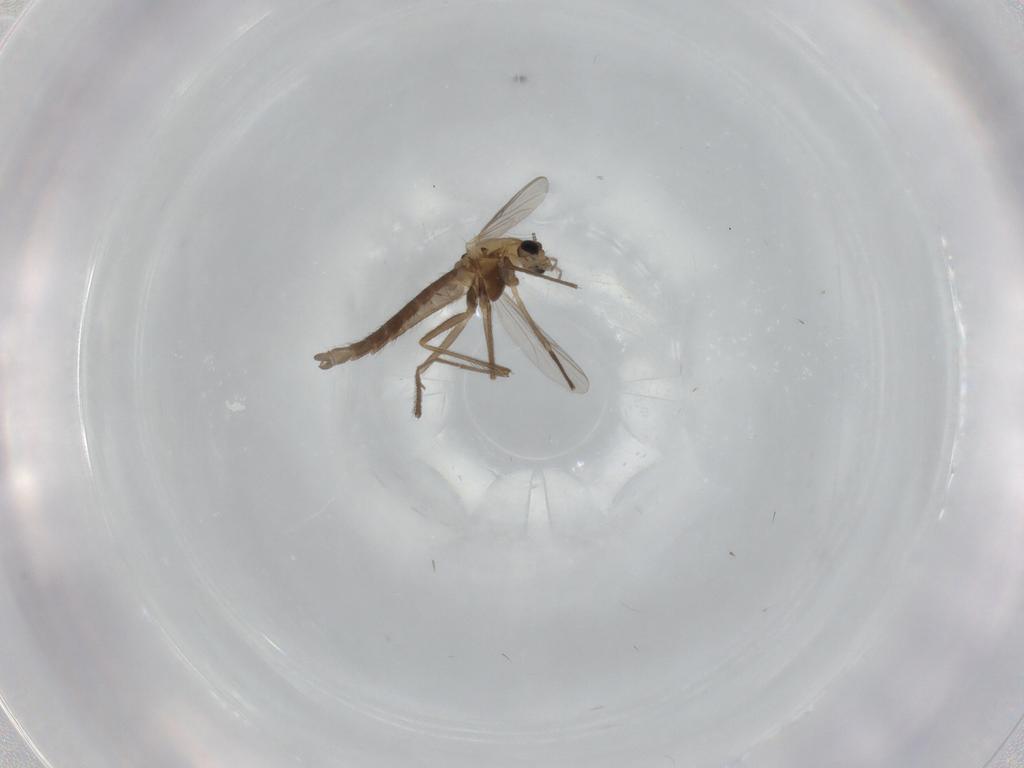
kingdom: Animalia
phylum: Arthropoda
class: Insecta
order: Diptera
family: Chironomidae
